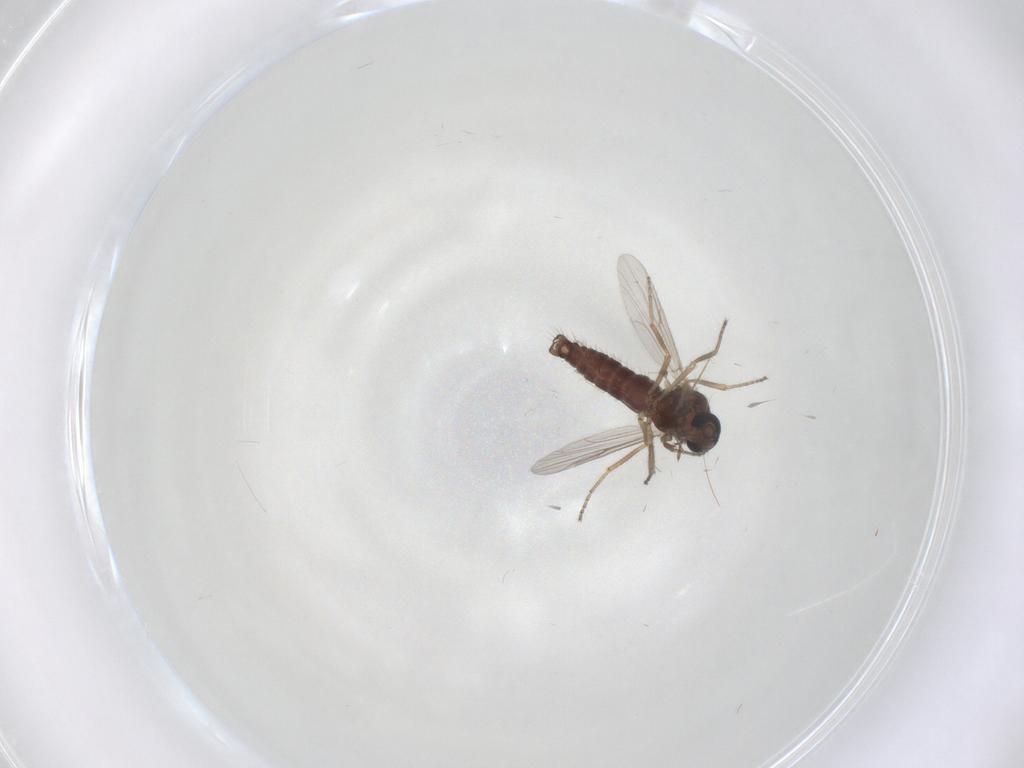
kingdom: Animalia
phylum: Arthropoda
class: Insecta
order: Diptera
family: Ceratopogonidae
